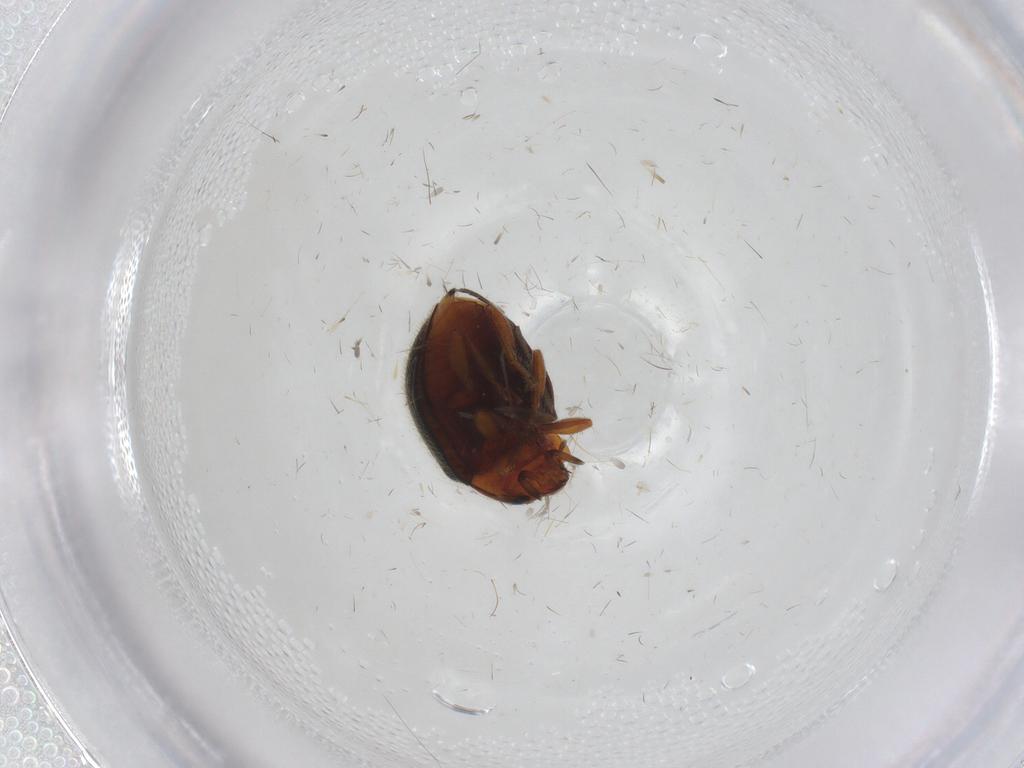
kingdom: Animalia
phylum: Arthropoda
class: Insecta
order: Coleoptera
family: Coccinellidae
